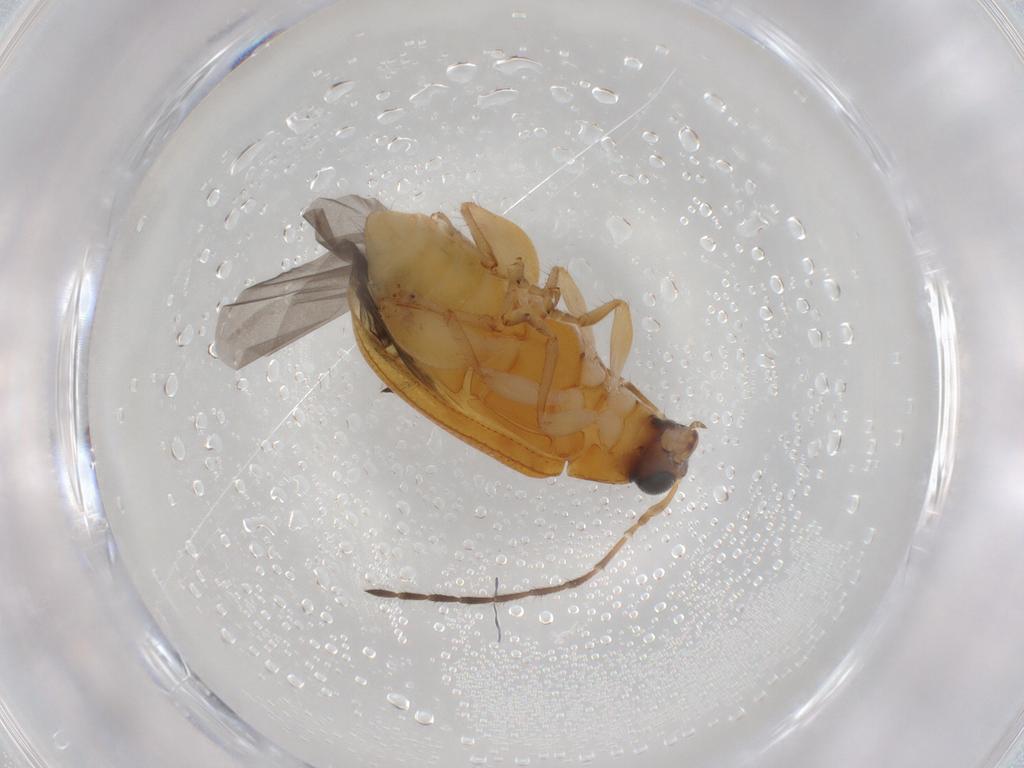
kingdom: Animalia
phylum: Arthropoda
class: Insecta
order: Coleoptera
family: Chrysomelidae
